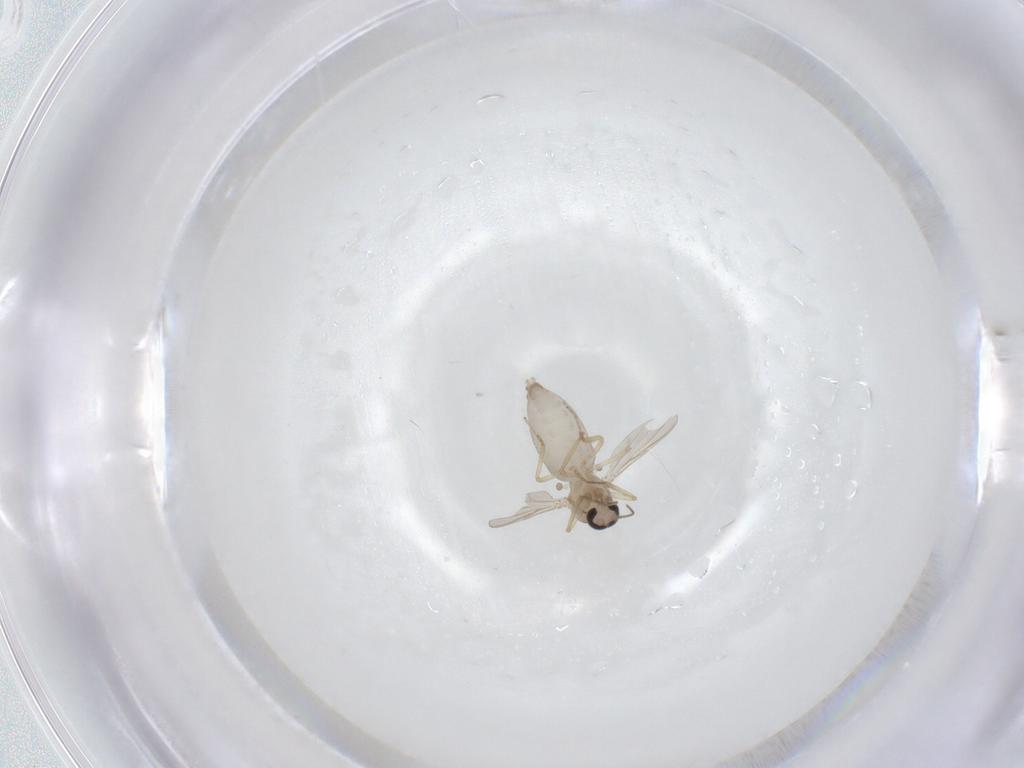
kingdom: Animalia
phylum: Arthropoda
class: Insecta
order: Diptera
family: Ceratopogonidae
